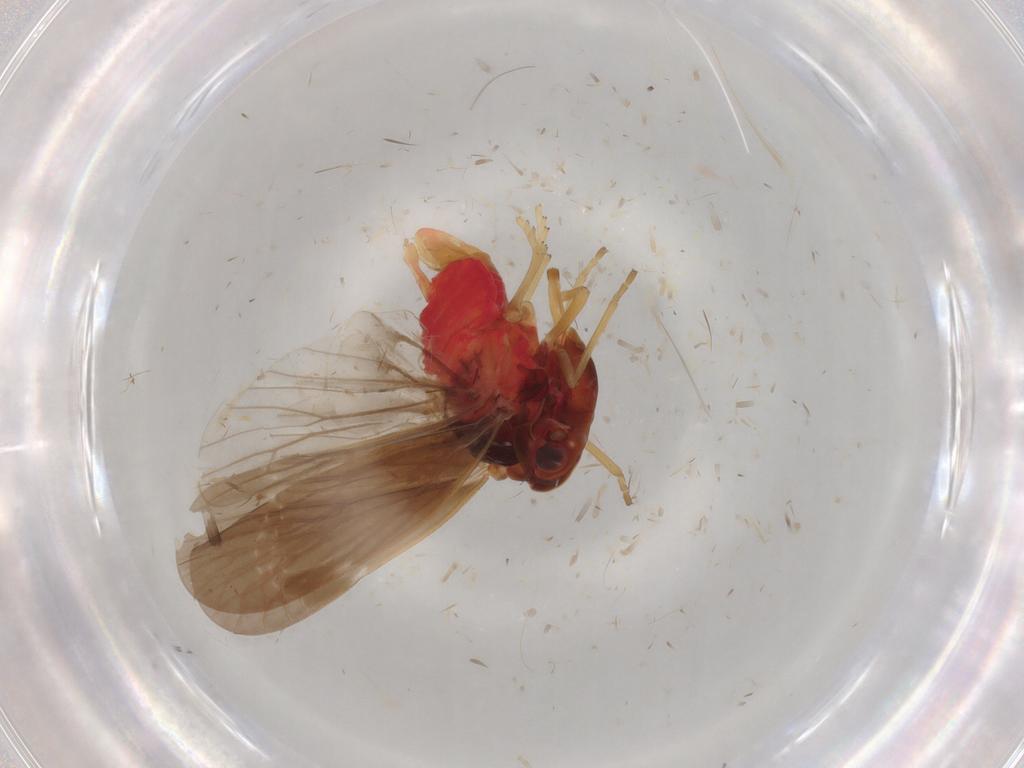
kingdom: Animalia
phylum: Arthropoda
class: Insecta
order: Hemiptera
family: Derbidae
